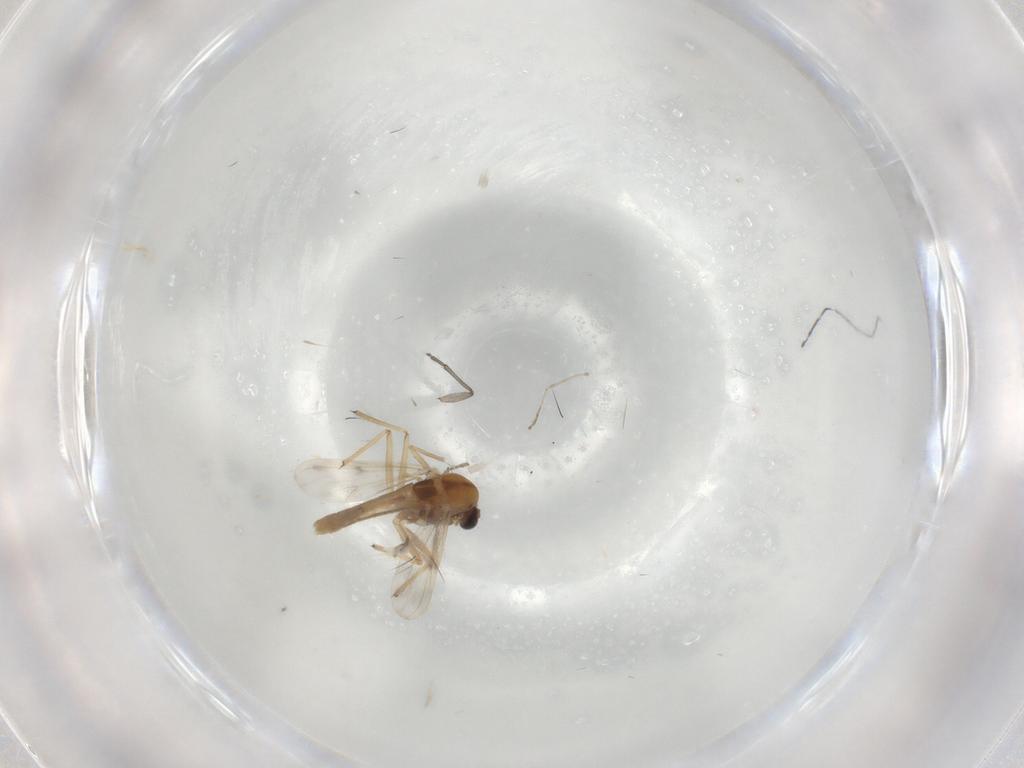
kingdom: Animalia
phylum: Arthropoda
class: Insecta
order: Diptera
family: Chironomidae
